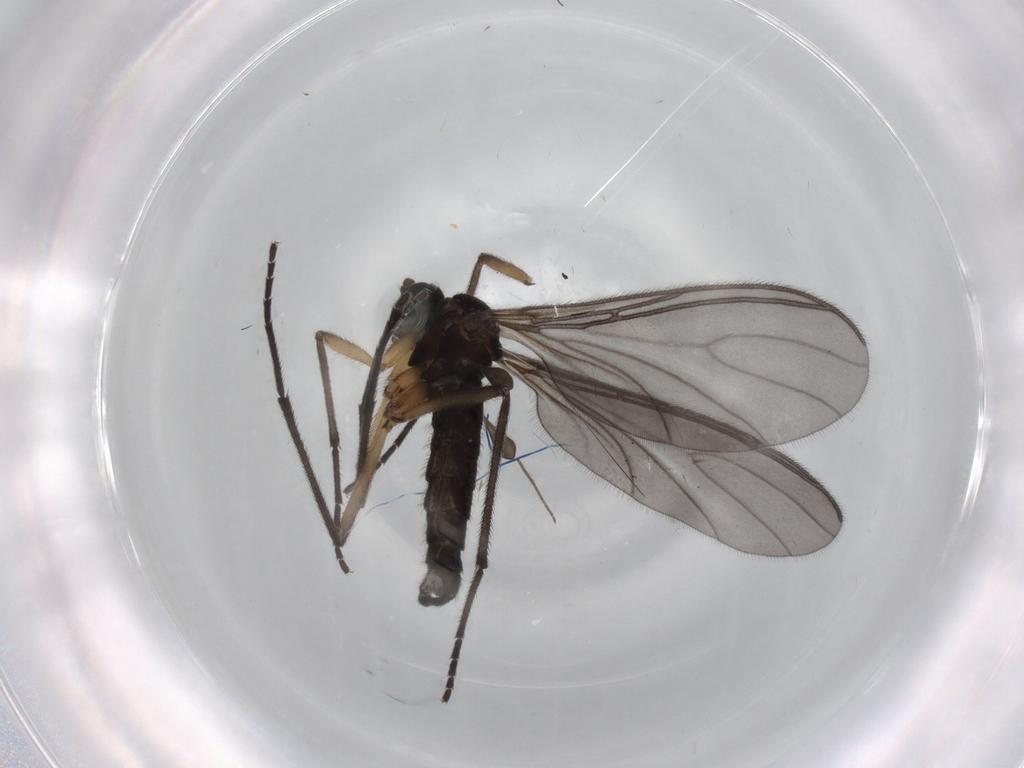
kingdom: Animalia
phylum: Arthropoda
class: Insecta
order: Diptera
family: Sciaridae
